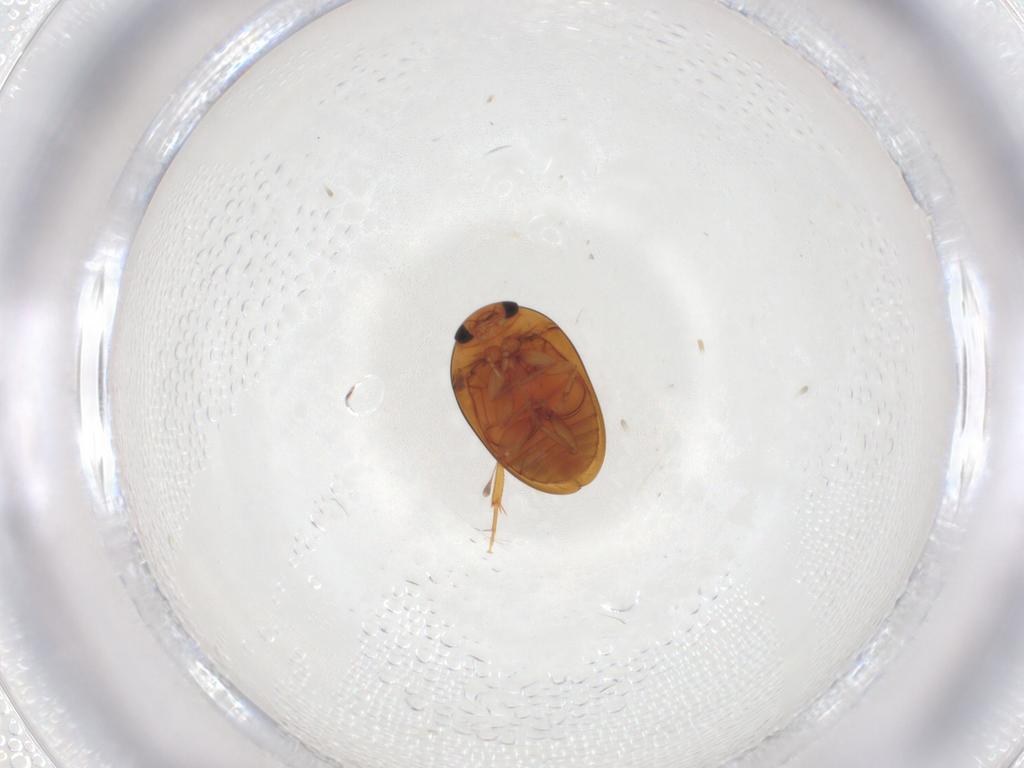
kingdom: Animalia
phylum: Arthropoda
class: Insecta
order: Coleoptera
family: Phalacridae
